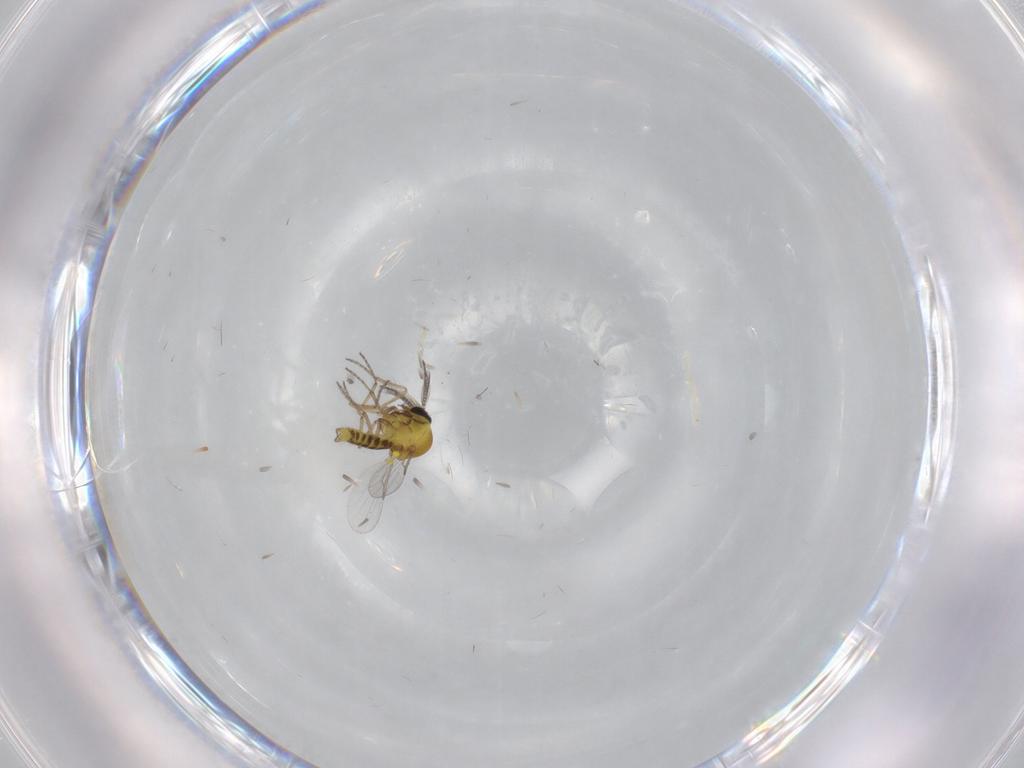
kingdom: Animalia
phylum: Arthropoda
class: Insecta
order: Diptera
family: Ceratopogonidae
